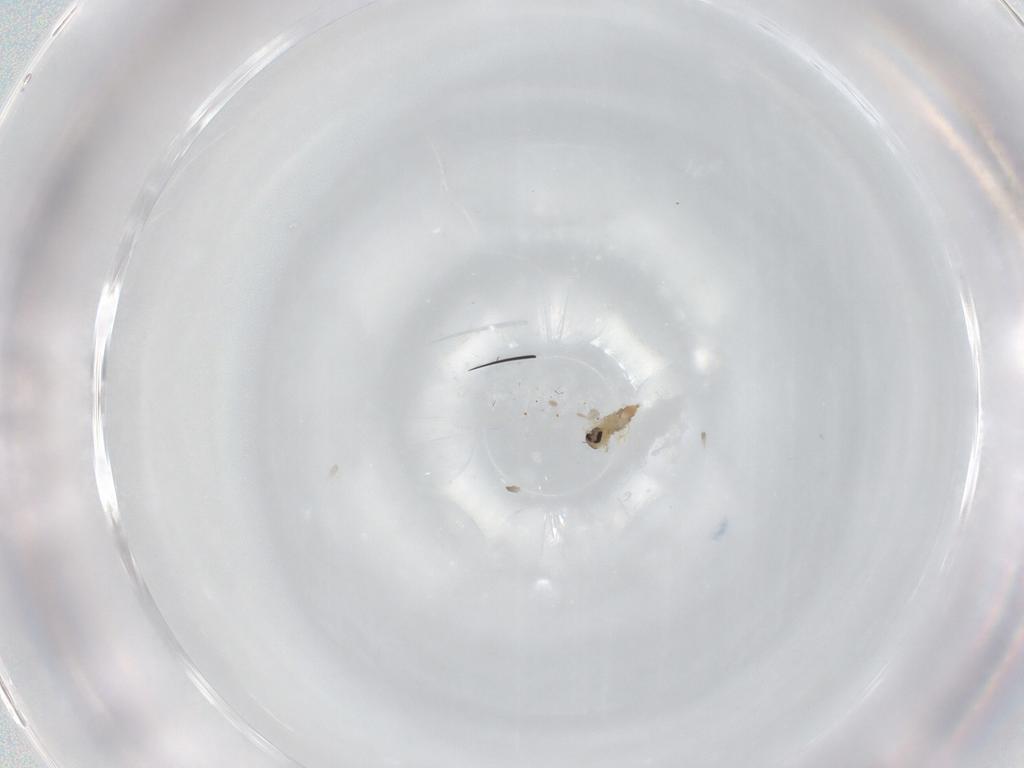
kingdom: Animalia
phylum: Arthropoda
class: Insecta
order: Diptera
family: Cecidomyiidae
